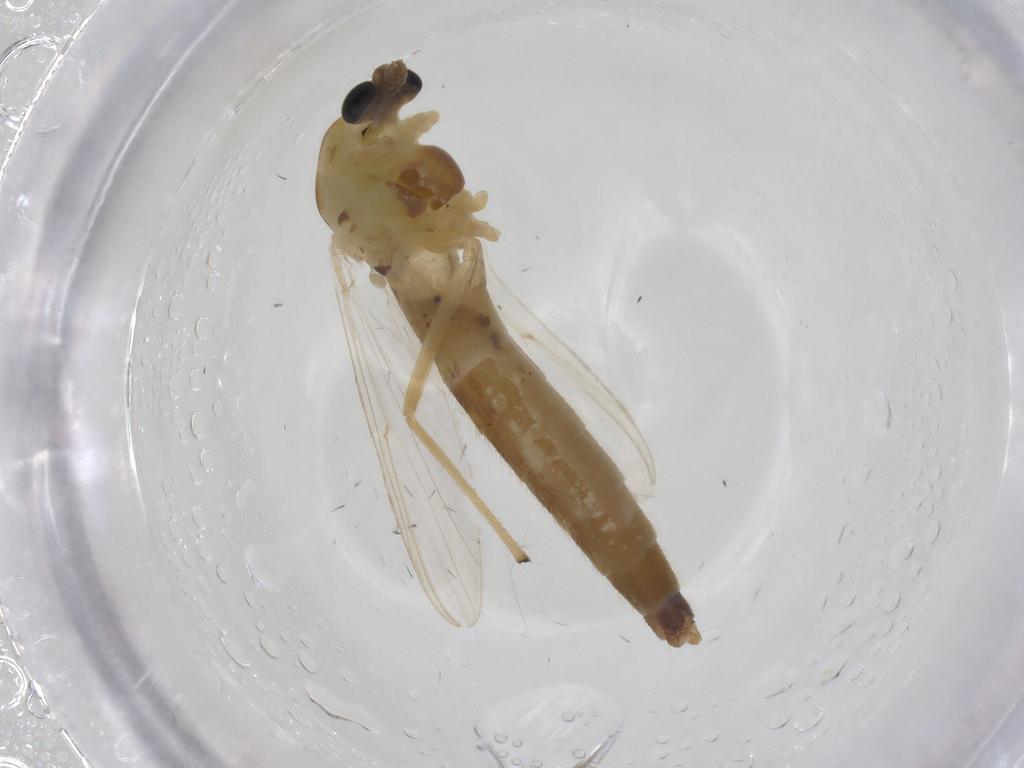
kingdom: Animalia
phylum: Arthropoda
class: Insecta
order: Diptera
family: Chironomidae
